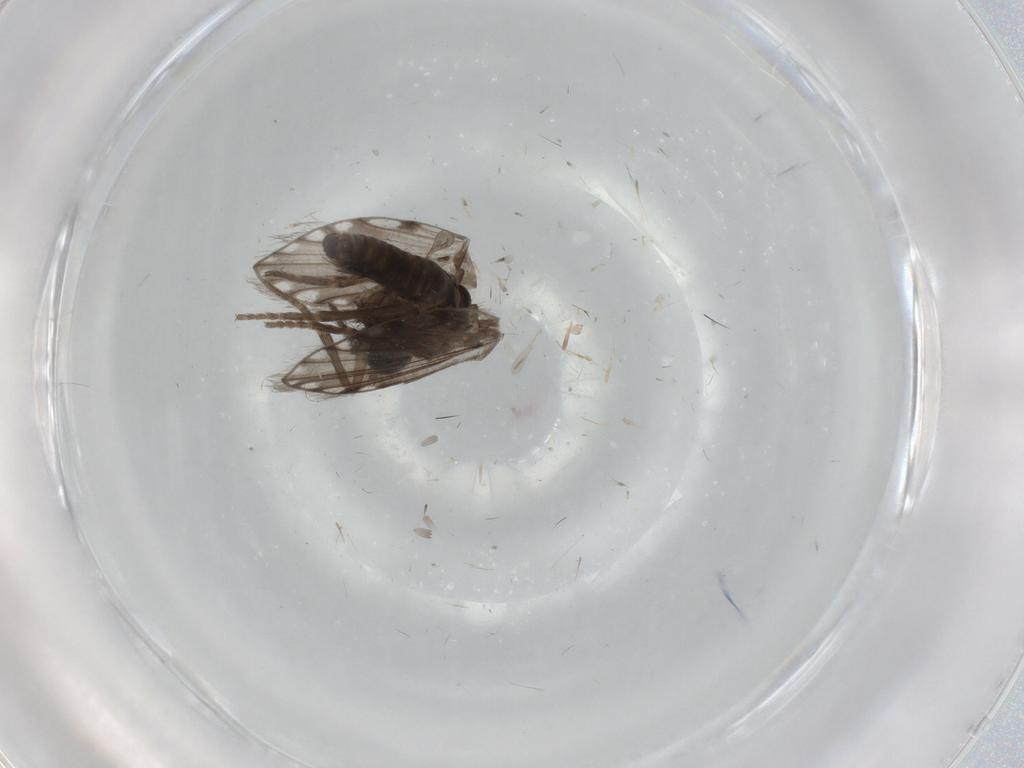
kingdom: Animalia
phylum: Arthropoda
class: Insecta
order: Diptera
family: Psychodidae
